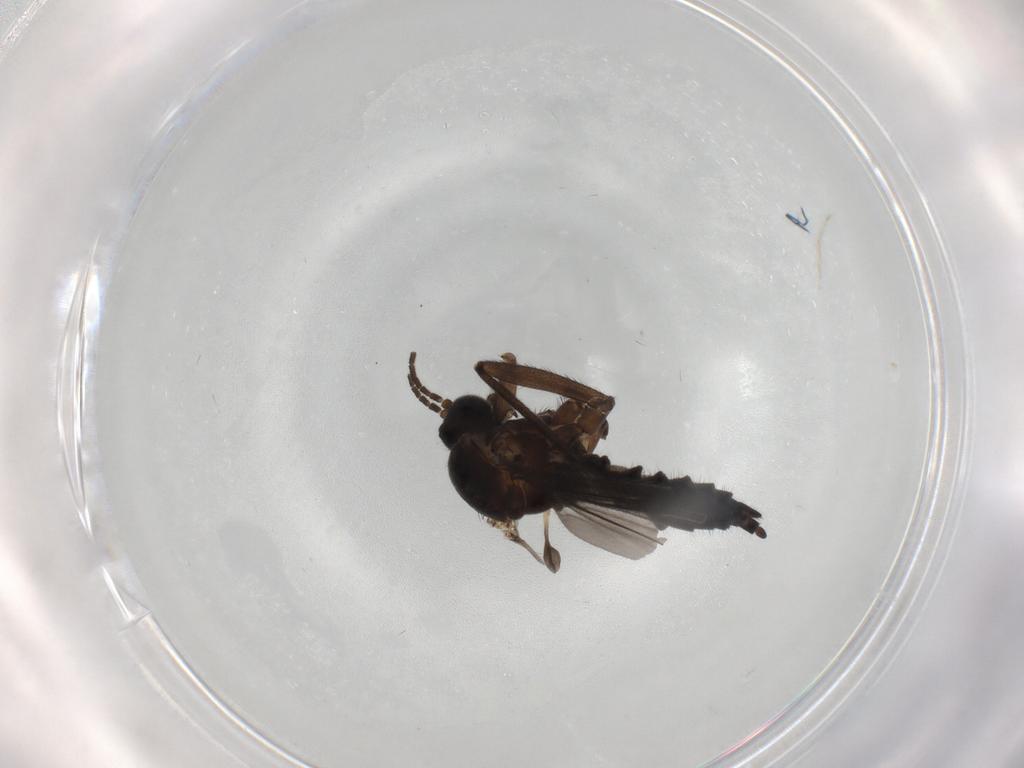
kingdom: Animalia
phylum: Arthropoda
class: Insecta
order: Diptera
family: Sciaridae
